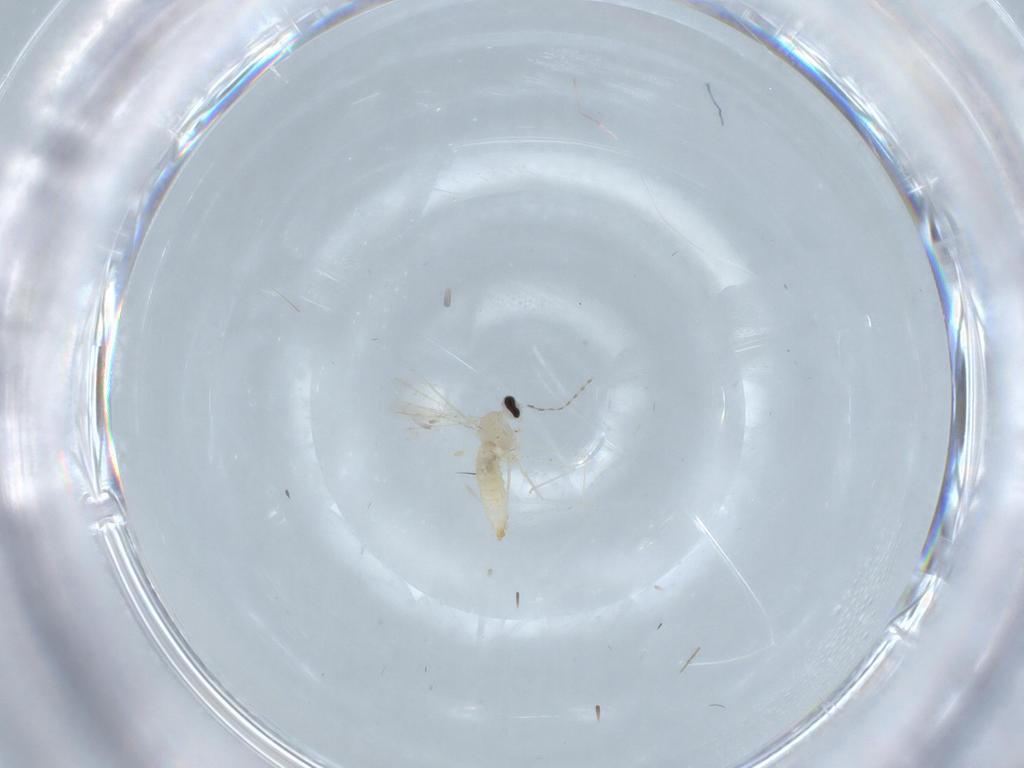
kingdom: Animalia
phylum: Arthropoda
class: Insecta
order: Diptera
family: Cecidomyiidae
